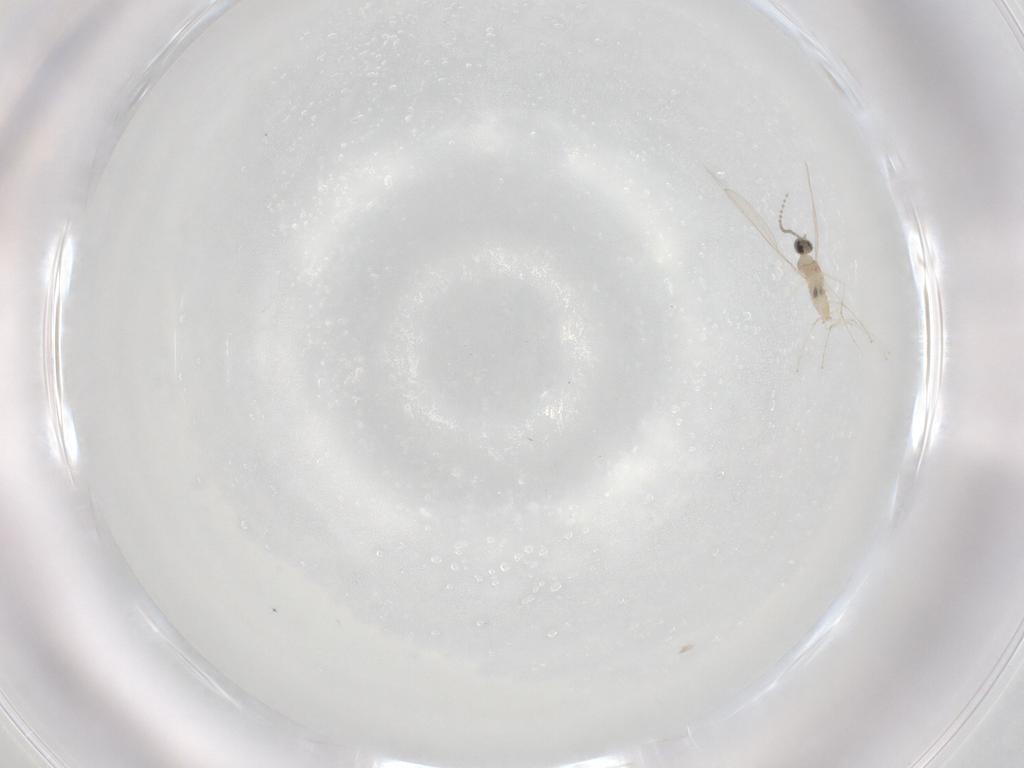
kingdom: Animalia
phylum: Arthropoda
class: Insecta
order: Diptera
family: Cecidomyiidae
